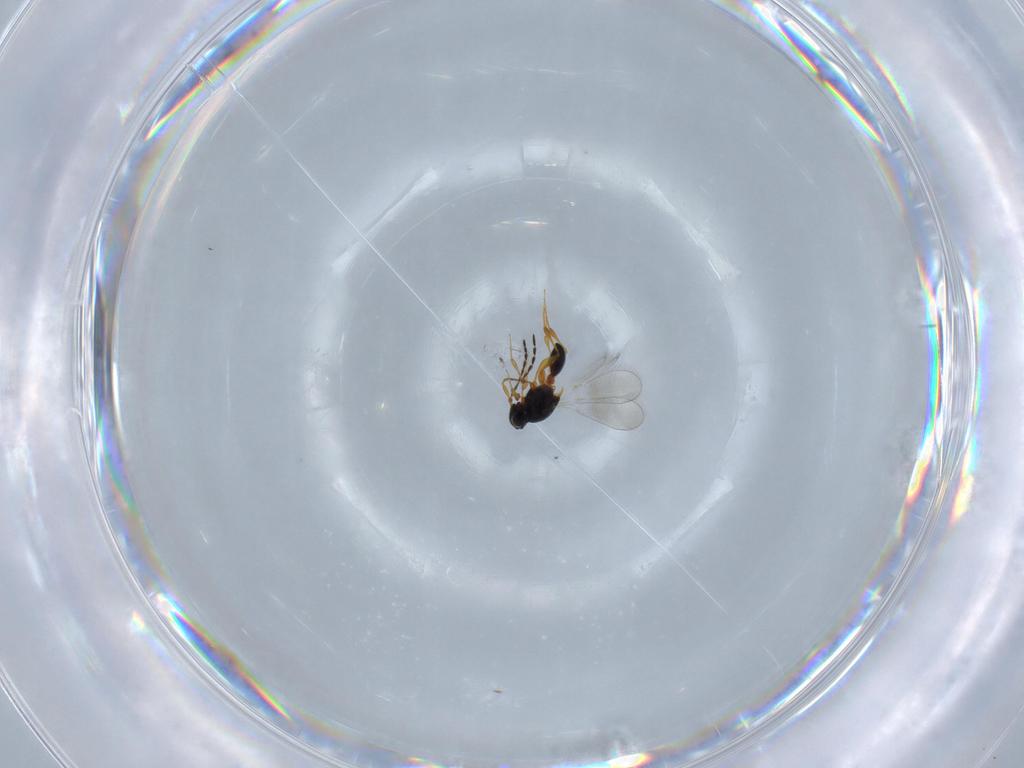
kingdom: Animalia
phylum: Arthropoda
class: Insecta
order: Hymenoptera
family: Platygastridae
